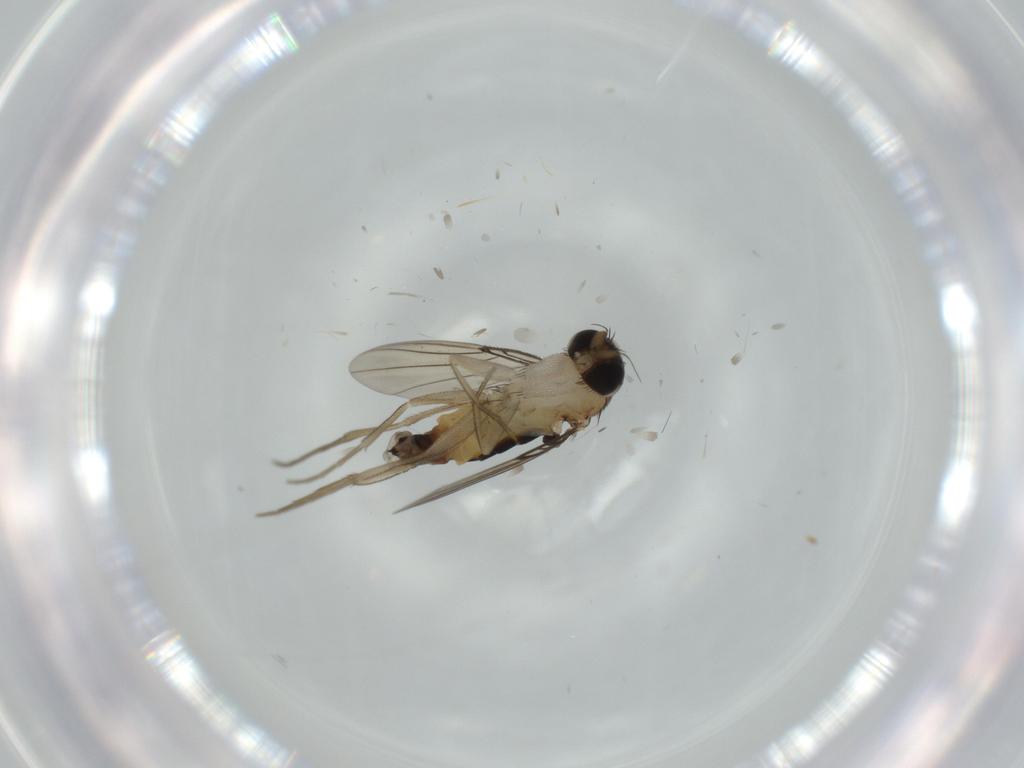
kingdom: Animalia
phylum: Arthropoda
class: Insecta
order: Diptera
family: Phoridae
